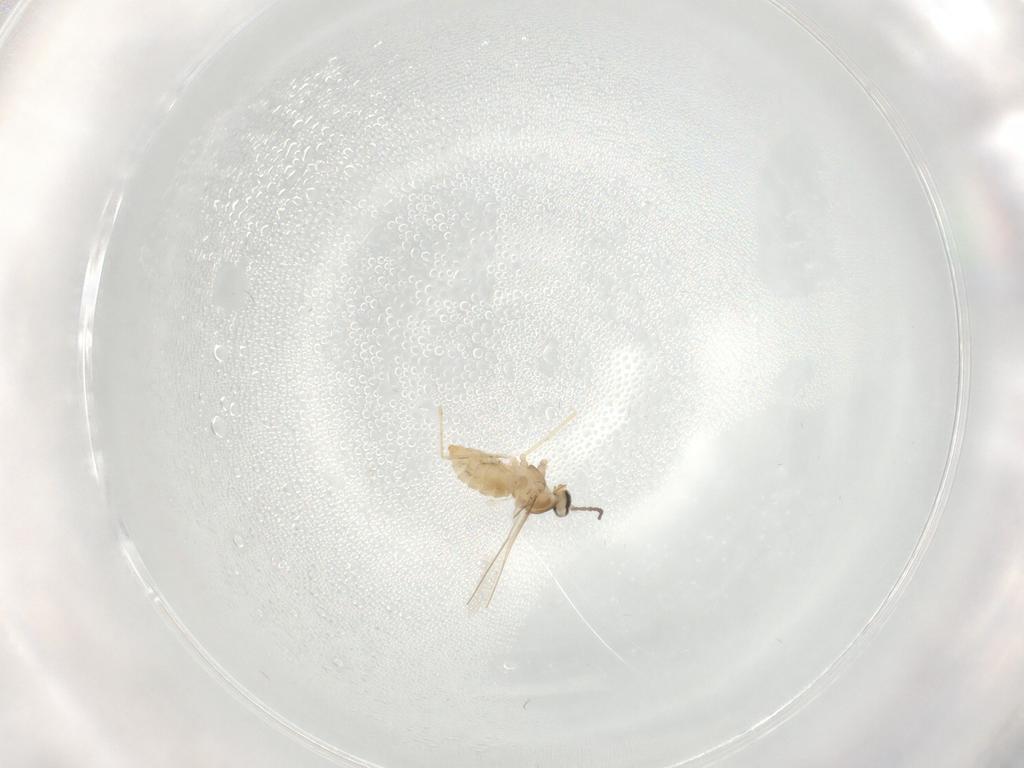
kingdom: Animalia
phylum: Arthropoda
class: Insecta
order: Diptera
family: Cecidomyiidae
